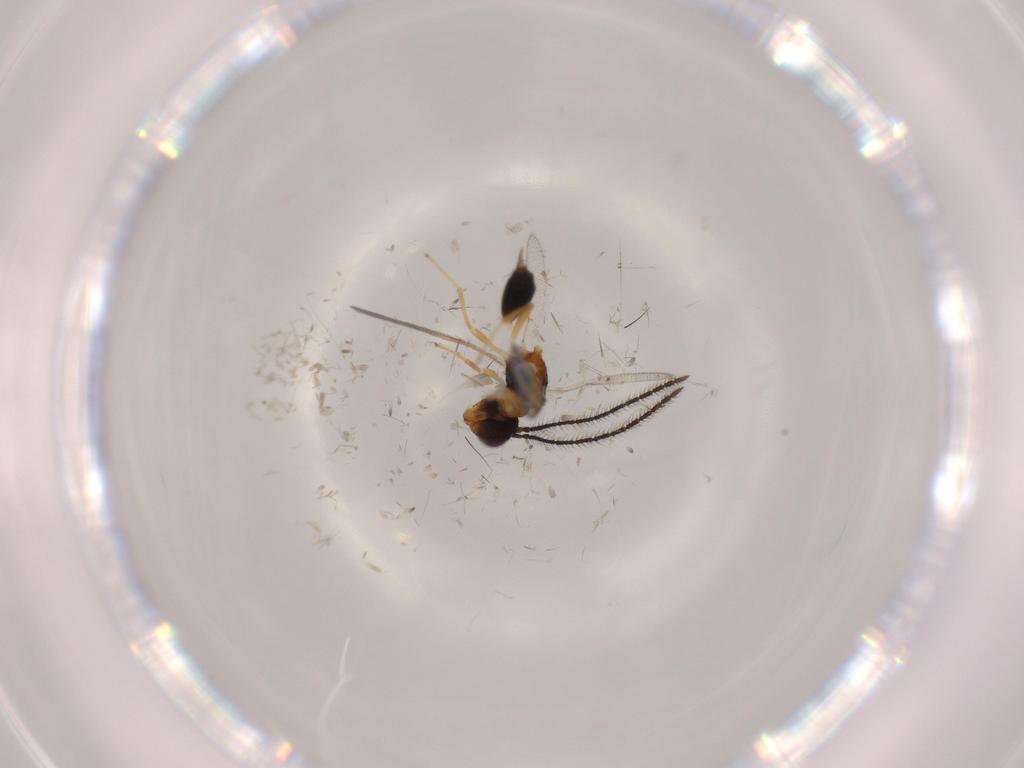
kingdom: Animalia
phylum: Arthropoda
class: Insecta
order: Hymenoptera
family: Diparidae
